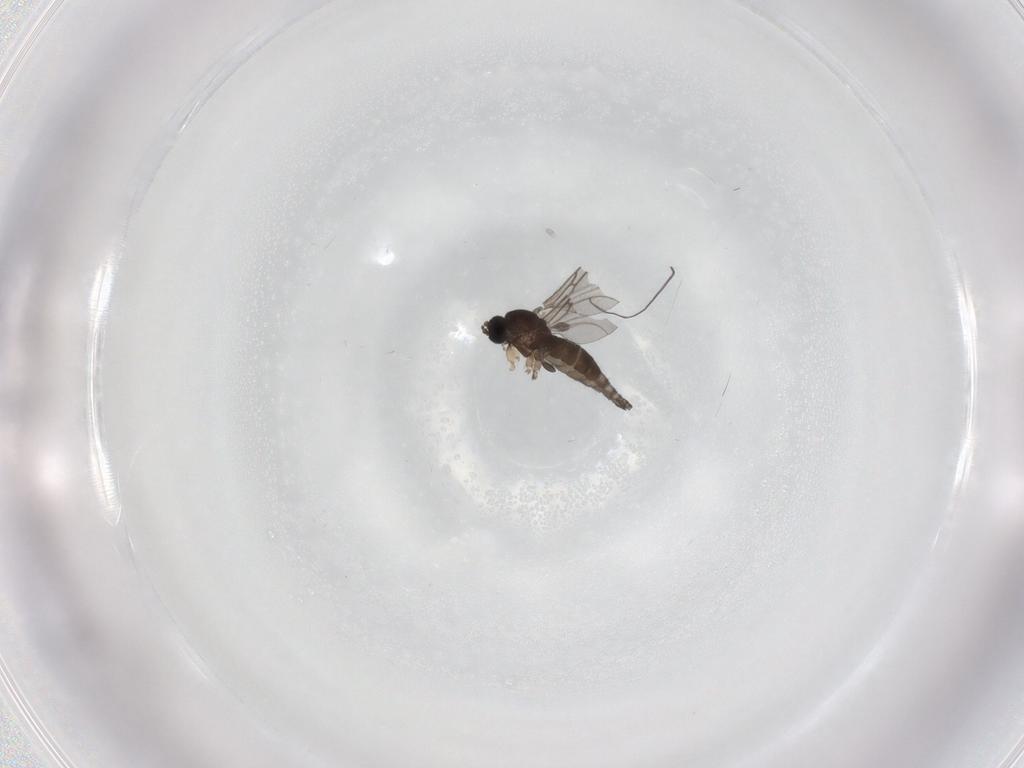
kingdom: Animalia
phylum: Arthropoda
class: Insecta
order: Diptera
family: Sciaridae
